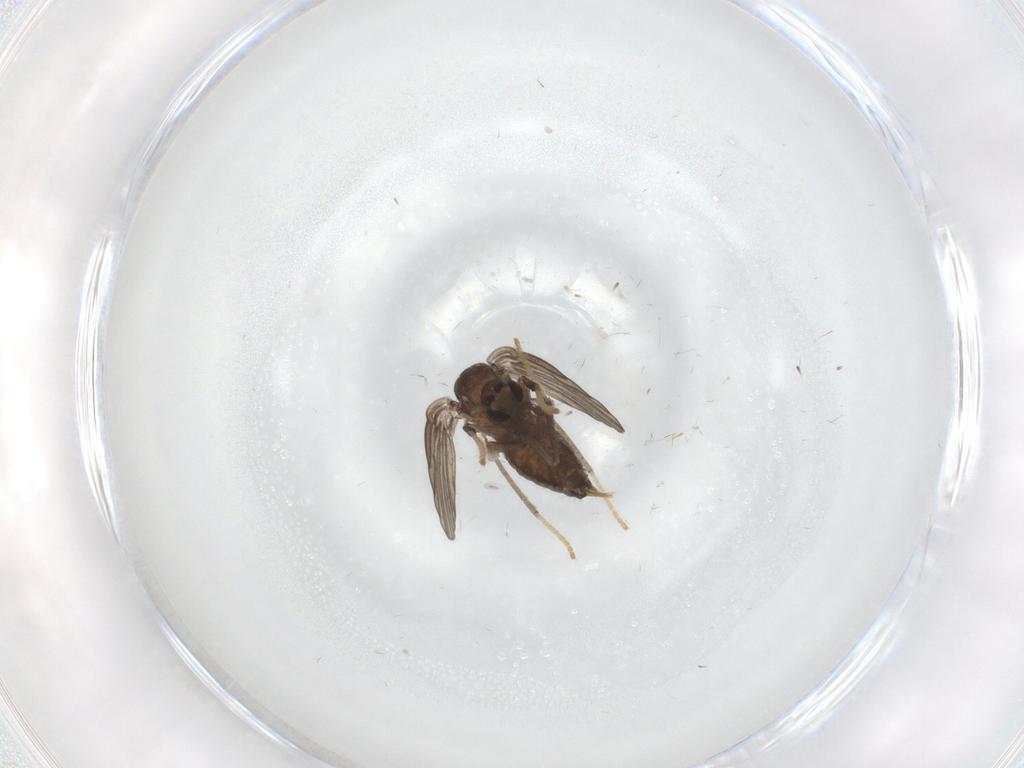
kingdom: Animalia
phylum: Arthropoda
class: Insecta
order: Diptera
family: Psychodidae
